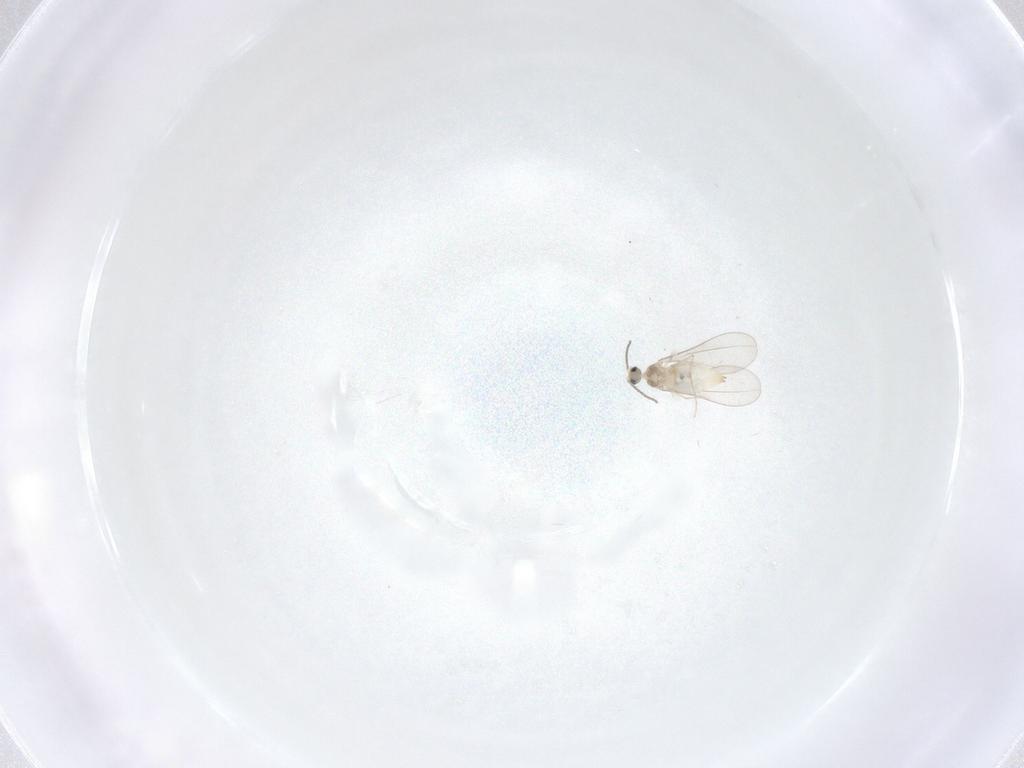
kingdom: Animalia
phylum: Arthropoda
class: Insecta
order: Diptera
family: Cecidomyiidae
